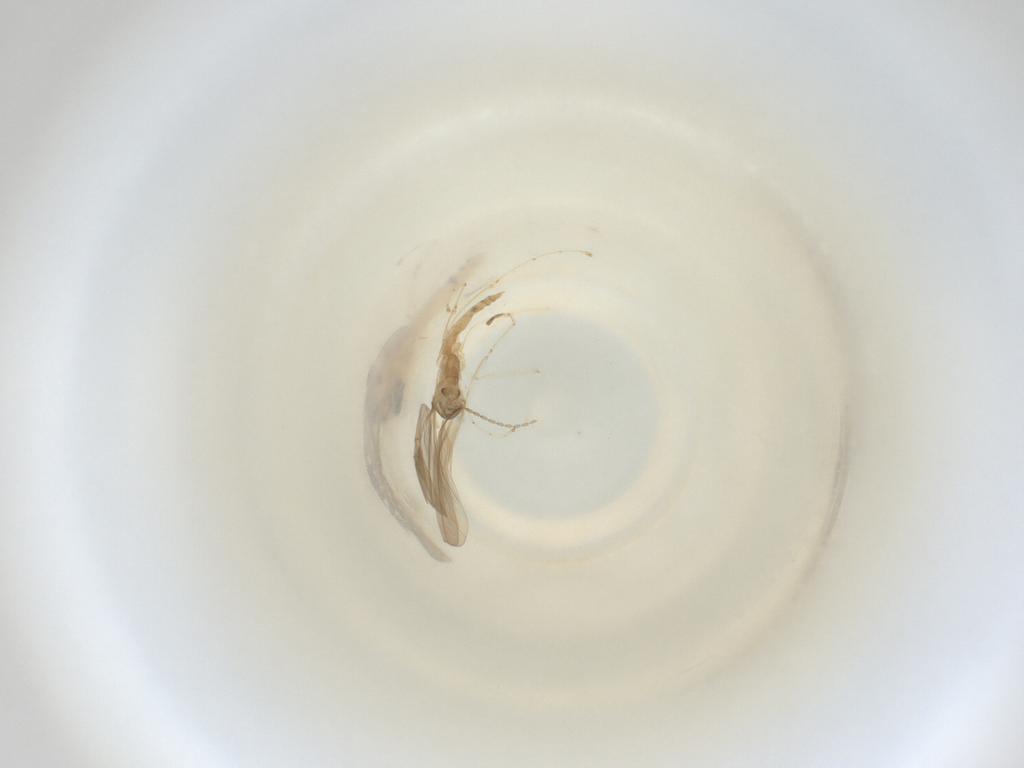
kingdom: Animalia
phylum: Arthropoda
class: Insecta
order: Diptera
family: Cecidomyiidae
